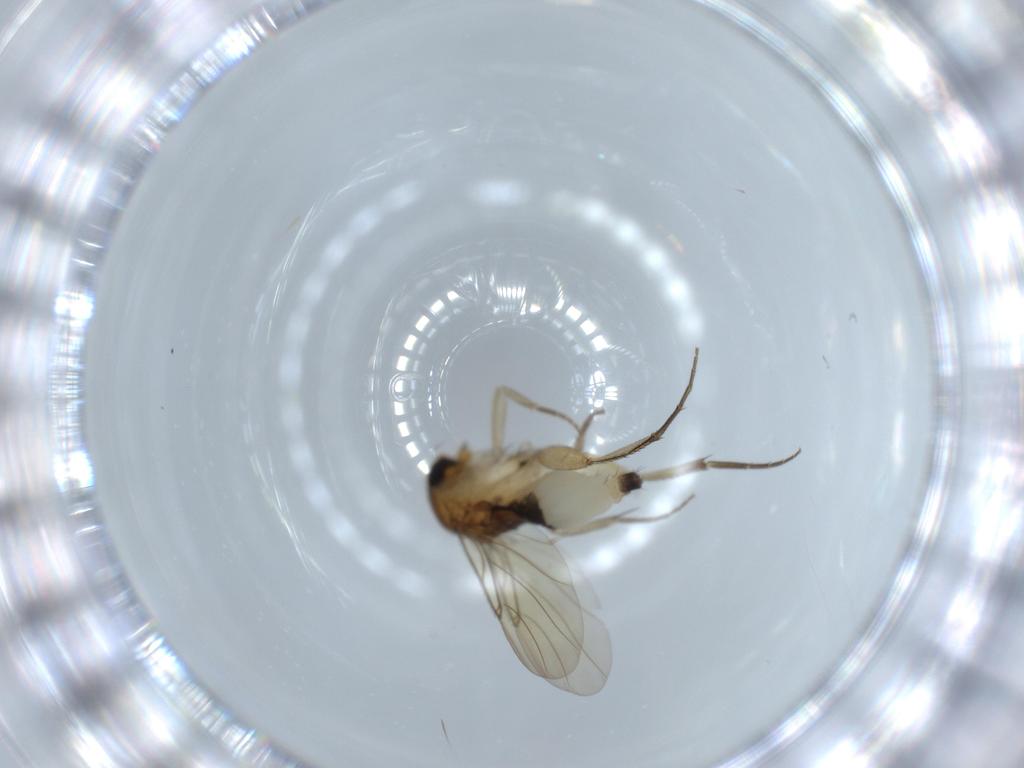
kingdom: Animalia
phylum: Arthropoda
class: Insecta
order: Diptera
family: Phoridae
